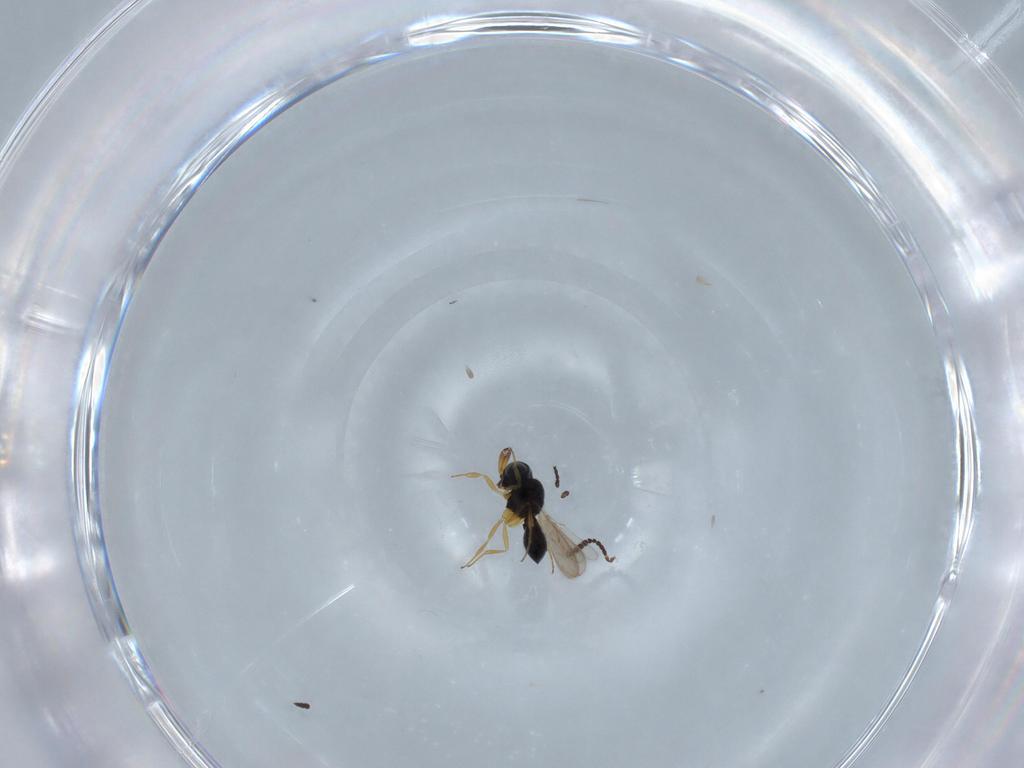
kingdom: Animalia
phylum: Arthropoda
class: Insecta
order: Hymenoptera
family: Scelionidae
